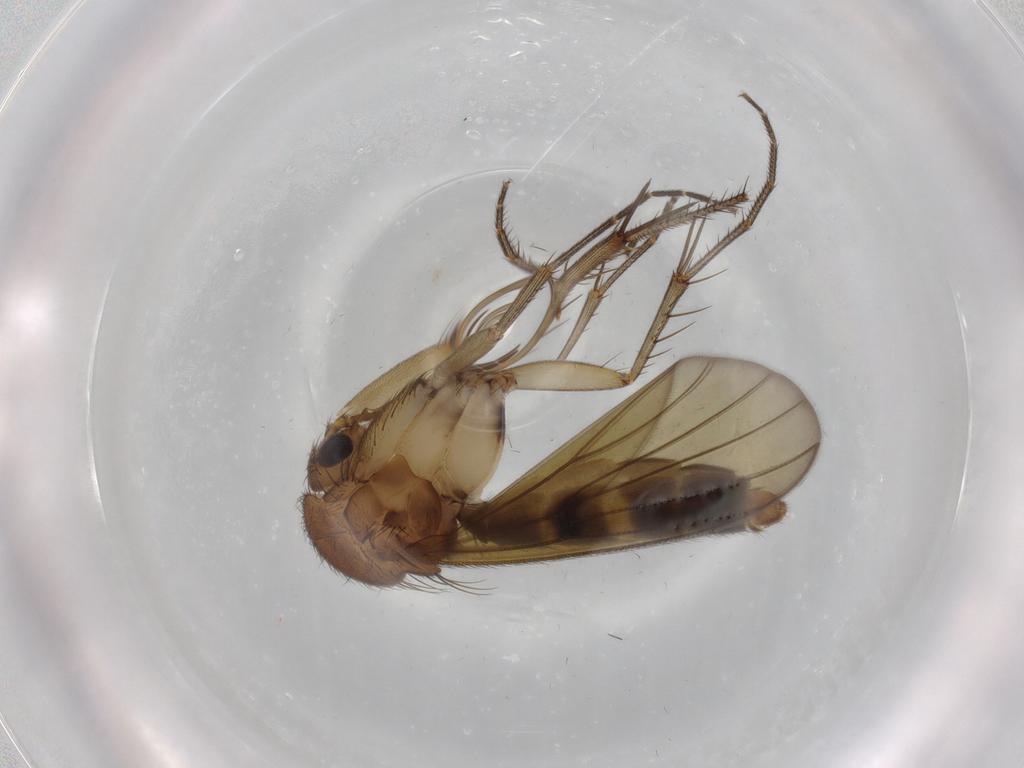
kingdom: Animalia
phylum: Arthropoda
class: Insecta
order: Diptera
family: Mycetophilidae
